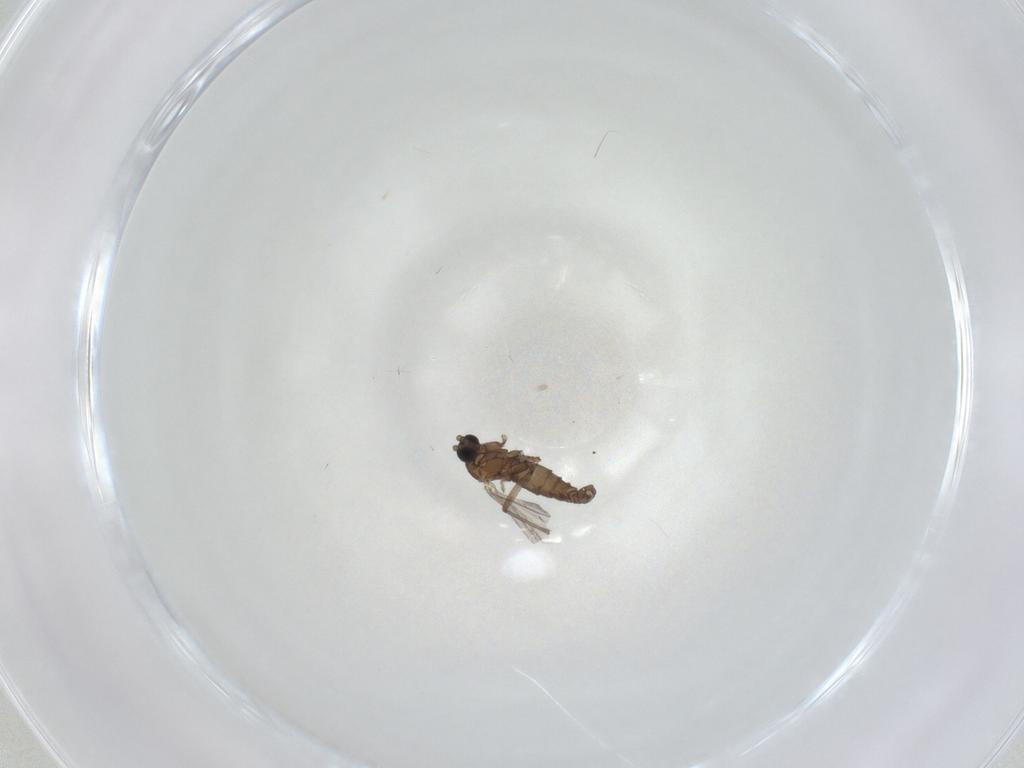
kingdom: Animalia
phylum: Arthropoda
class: Insecta
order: Diptera
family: Sciaridae
